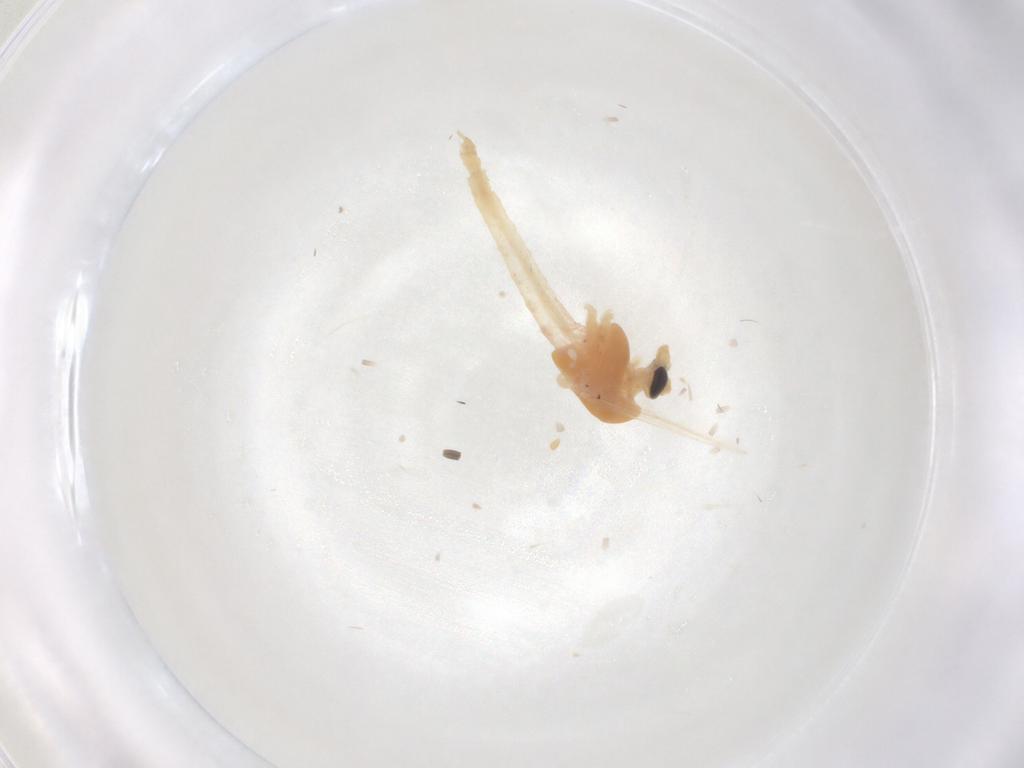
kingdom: Animalia
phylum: Arthropoda
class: Insecta
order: Diptera
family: Chironomidae
